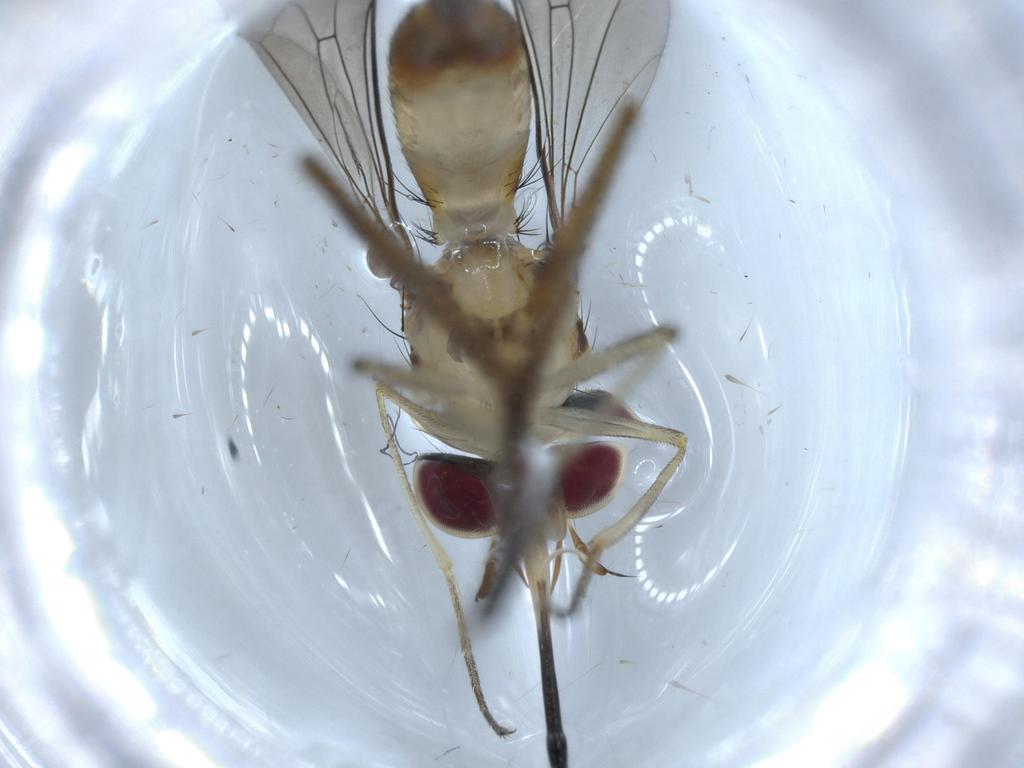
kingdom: Animalia
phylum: Arthropoda
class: Insecta
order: Diptera
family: Conopidae
